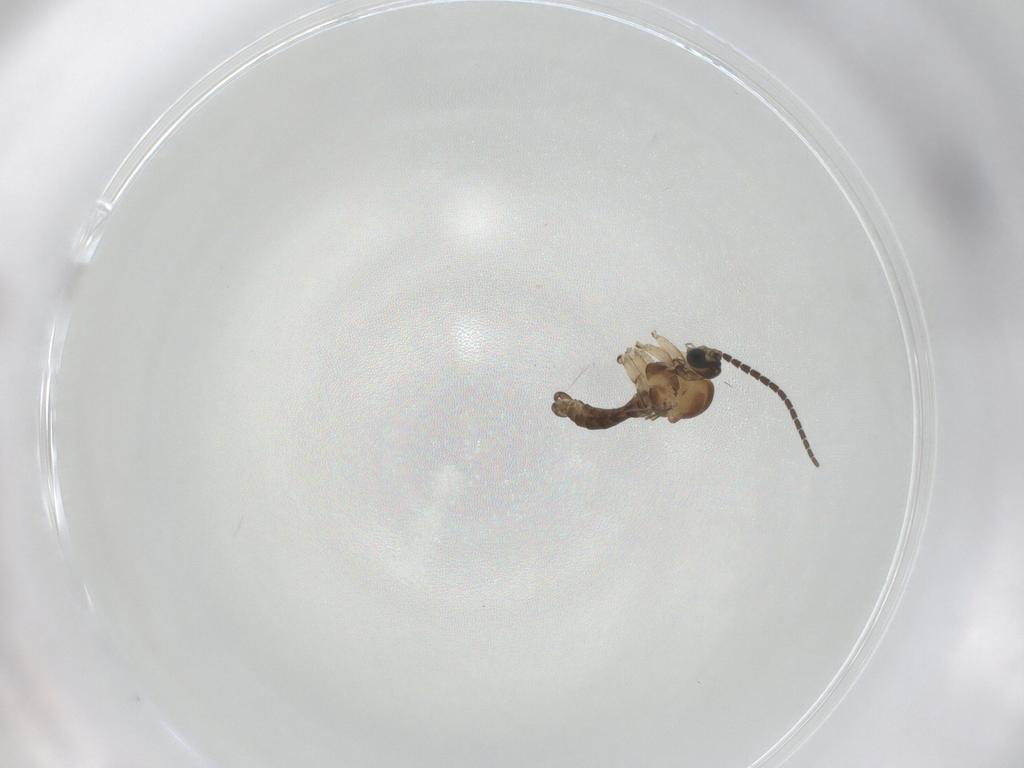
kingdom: Animalia
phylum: Arthropoda
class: Insecta
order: Diptera
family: Sciaridae
